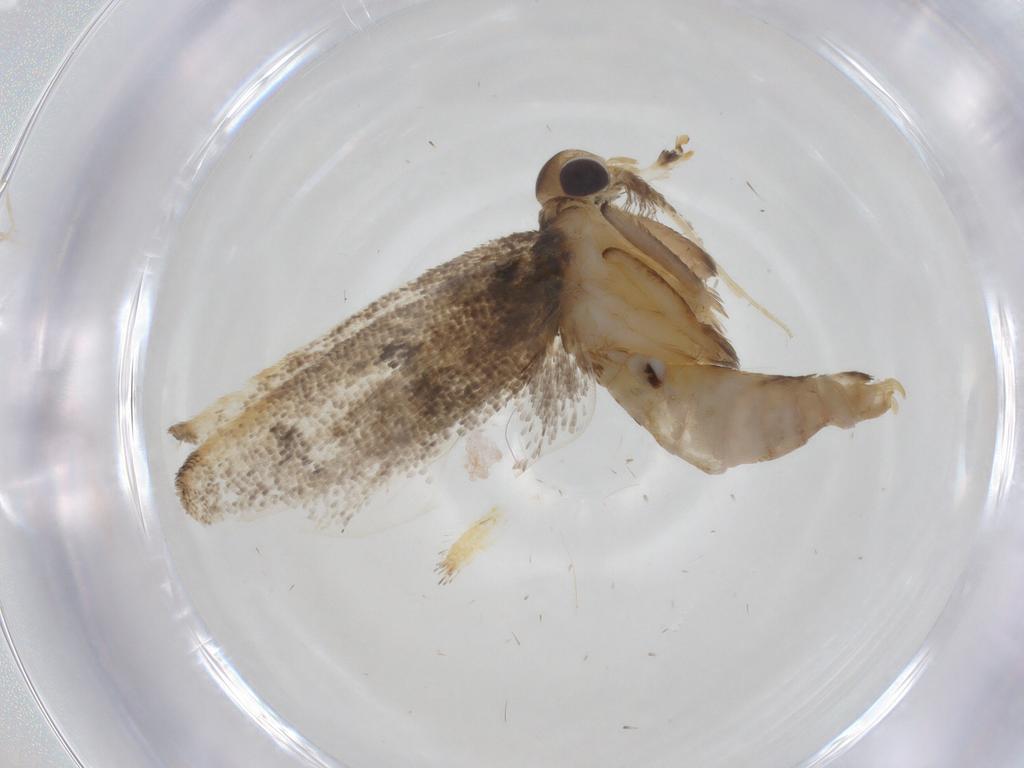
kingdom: Animalia
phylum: Arthropoda
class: Insecta
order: Lepidoptera
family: Lecithoceridae
